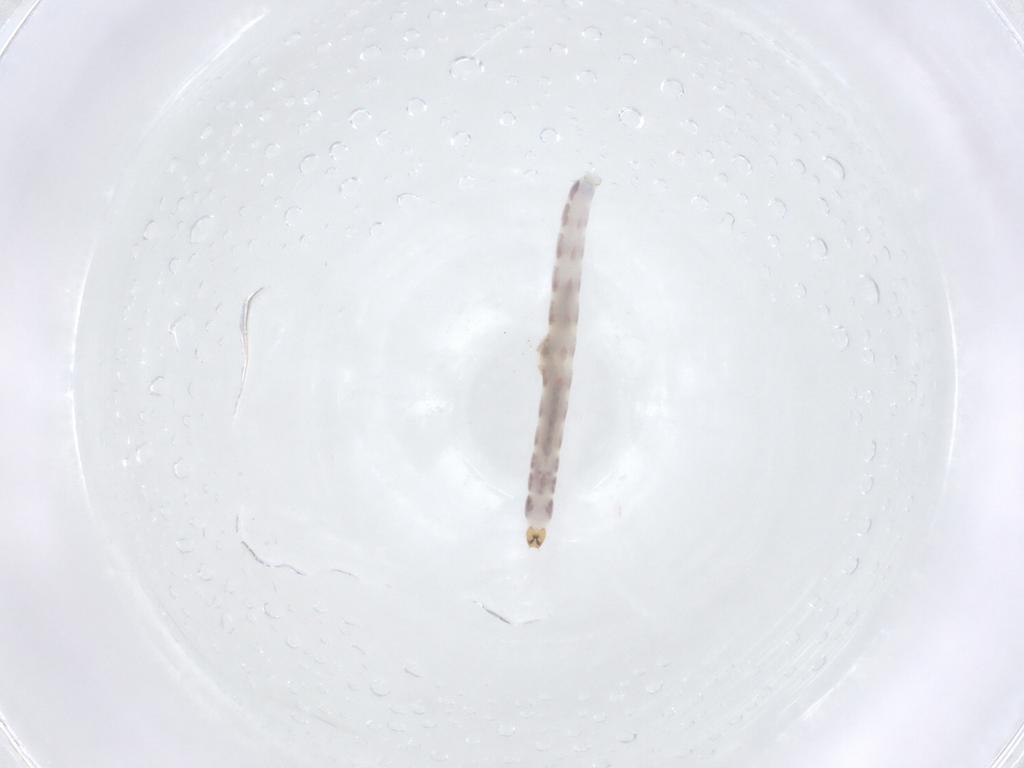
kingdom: Animalia
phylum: Arthropoda
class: Insecta
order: Diptera
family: Chironomidae
